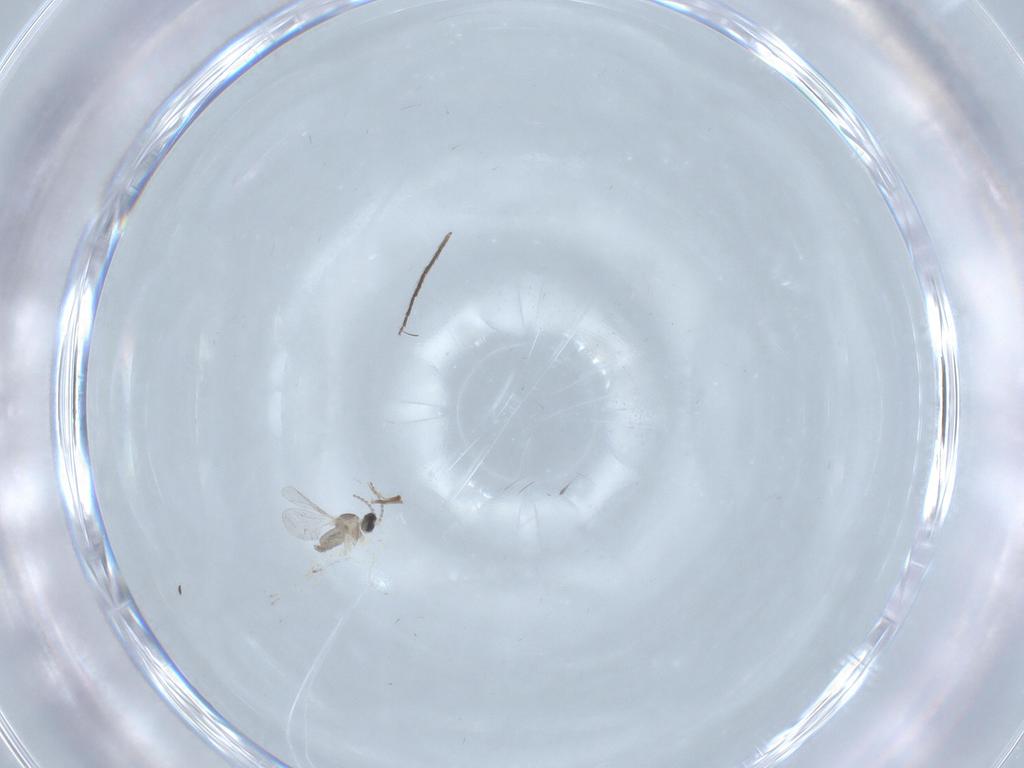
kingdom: Animalia
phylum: Arthropoda
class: Insecta
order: Diptera
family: Cecidomyiidae
